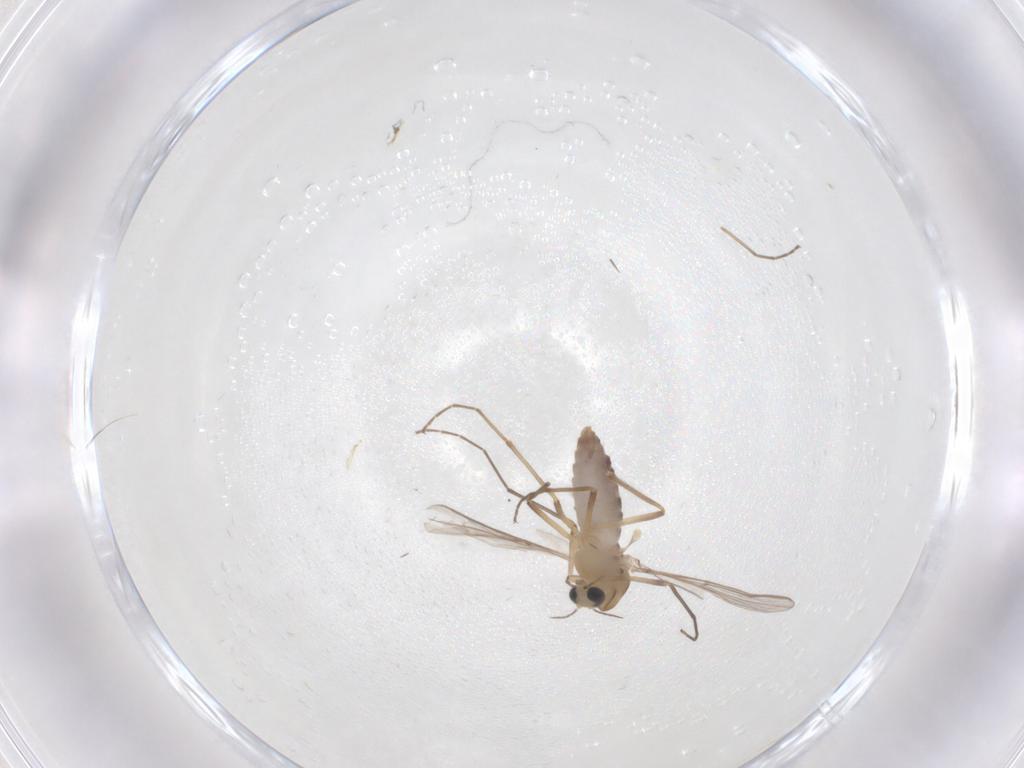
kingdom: Animalia
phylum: Arthropoda
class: Insecta
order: Diptera
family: Chironomidae
